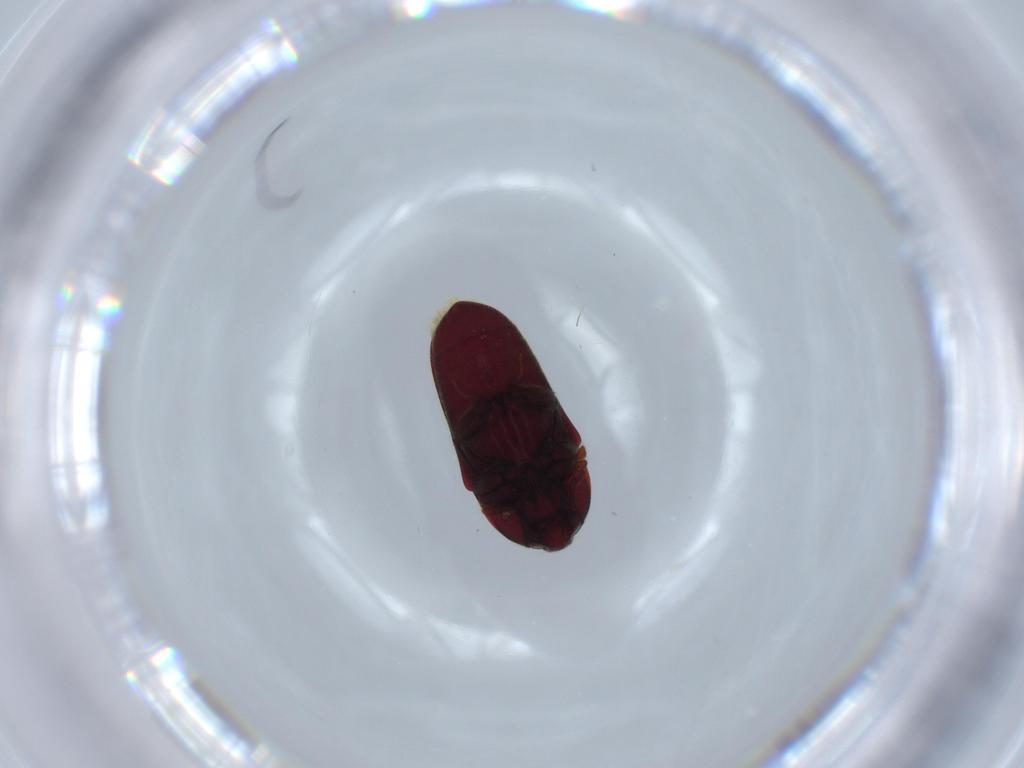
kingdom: Animalia
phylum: Arthropoda
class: Insecta
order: Coleoptera
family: Throscidae
